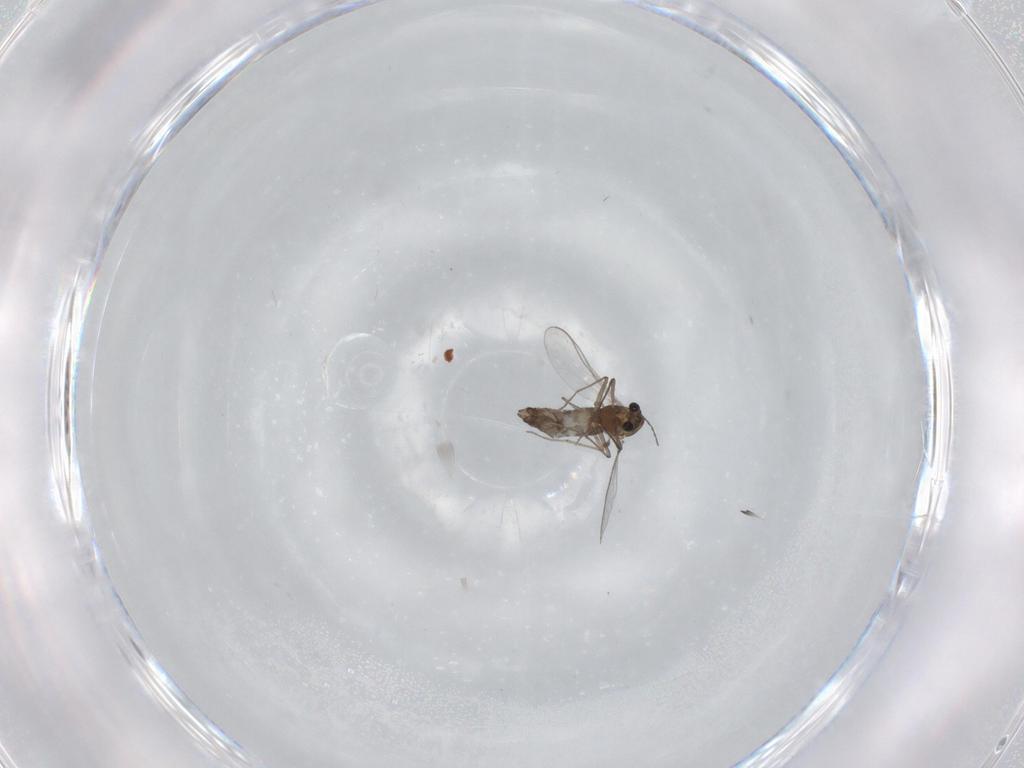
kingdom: Animalia
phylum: Arthropoda
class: Insecta
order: Diptera
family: Chironomidae
